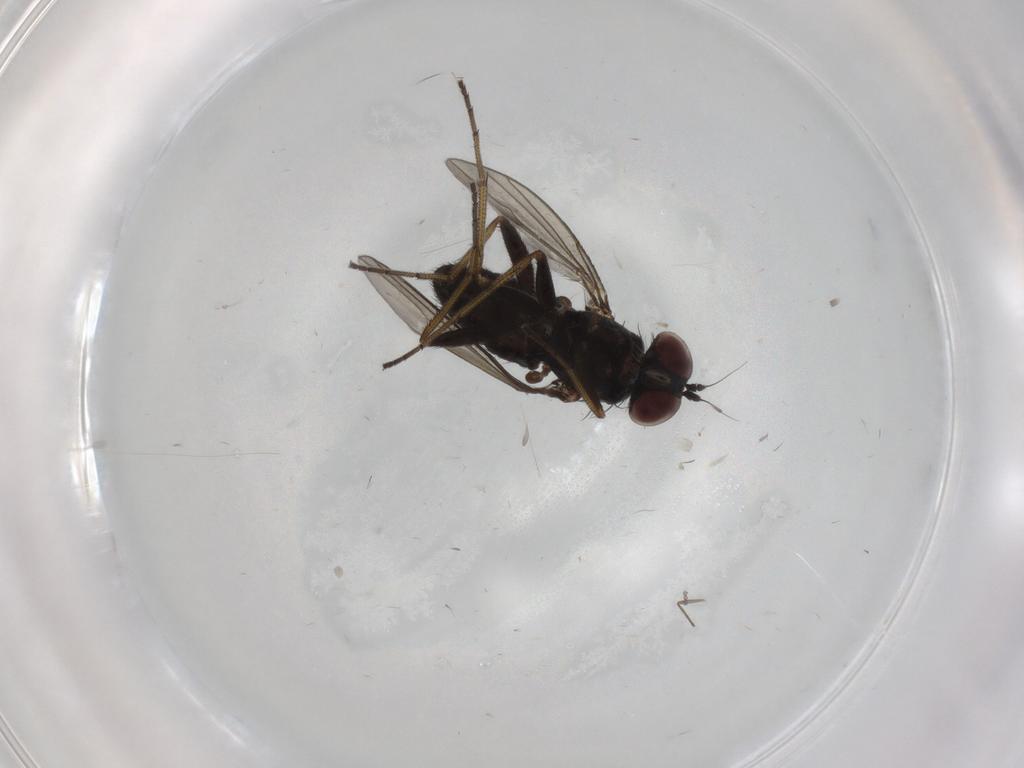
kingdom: Animalia
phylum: Arthropoda
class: Insecta
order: Diptera
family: Dolichopodidae
